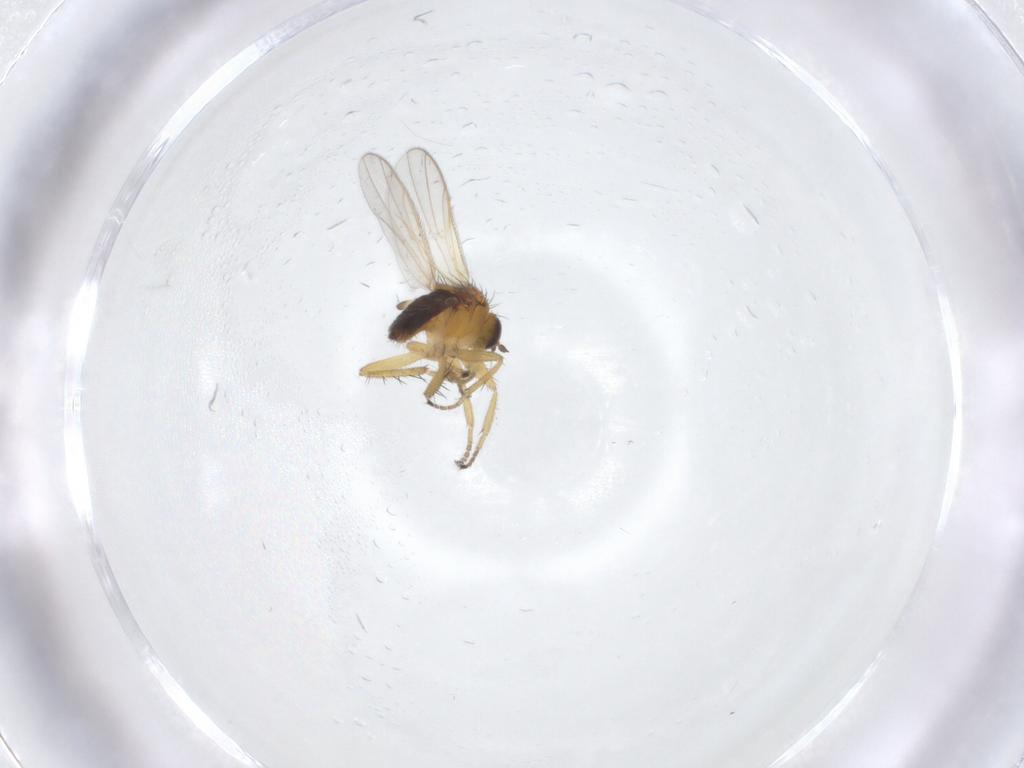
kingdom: Animalia
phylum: Arthropoda
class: Insecta
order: Diptera
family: Hybotidae
